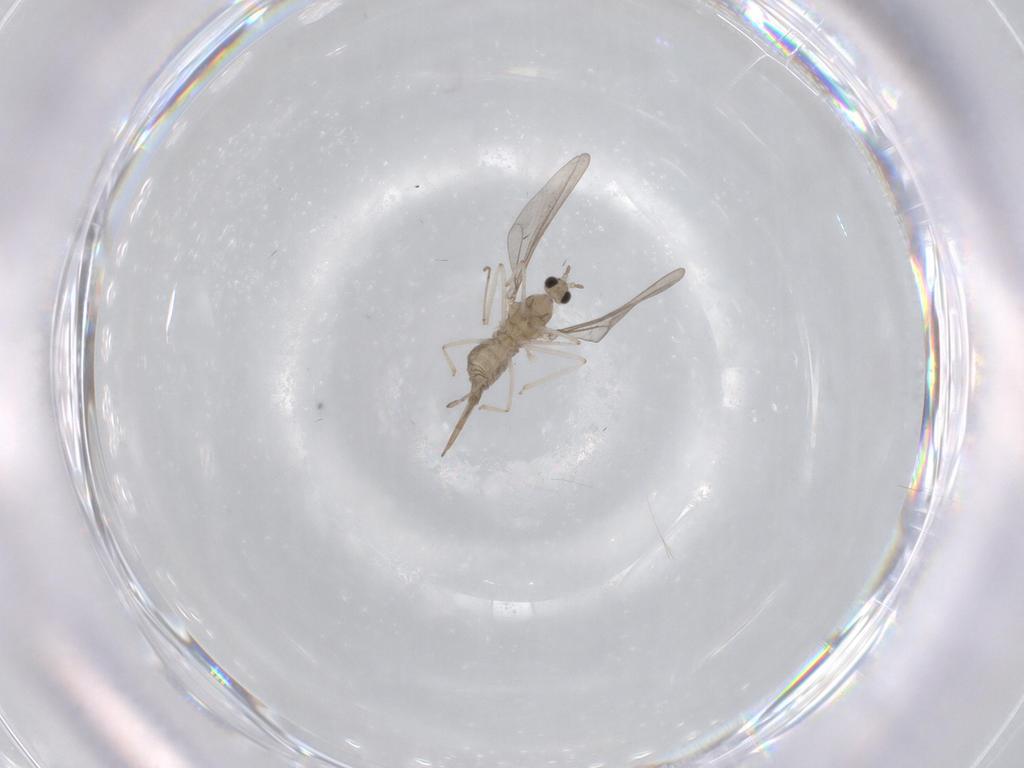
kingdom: Animalia
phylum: Arthropoda
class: Insecta
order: Diptera
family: Cecidomyiidae
